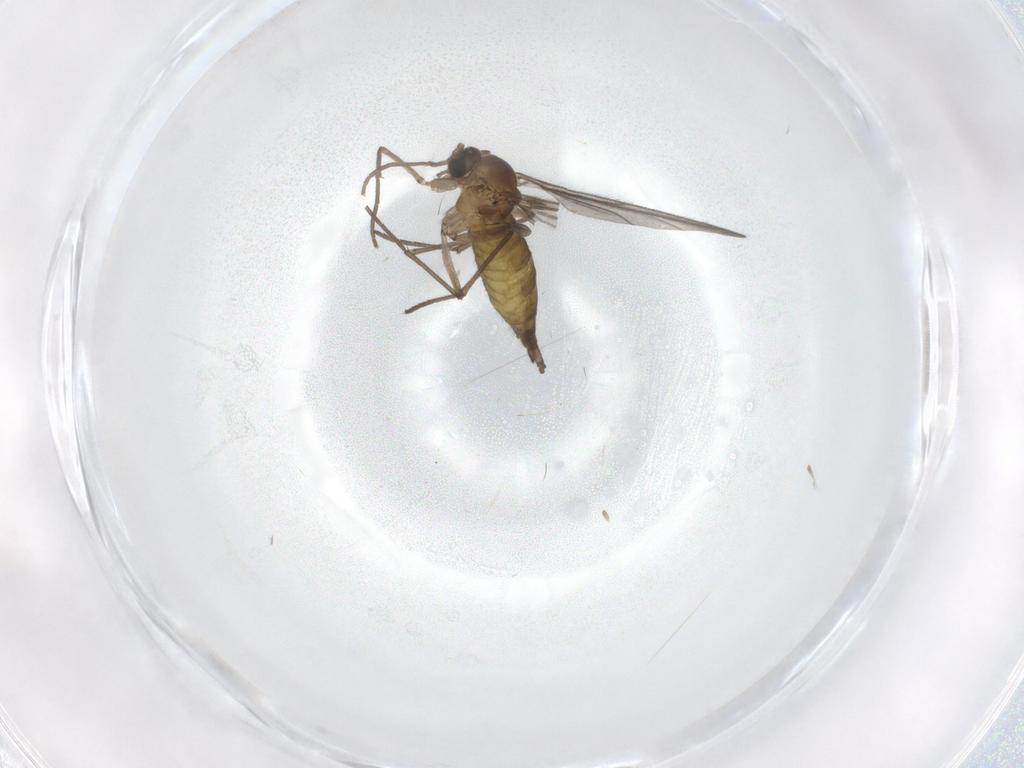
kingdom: Animalia
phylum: Arthropoda
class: Insecta
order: Diptera
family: Cecidomyiidae
